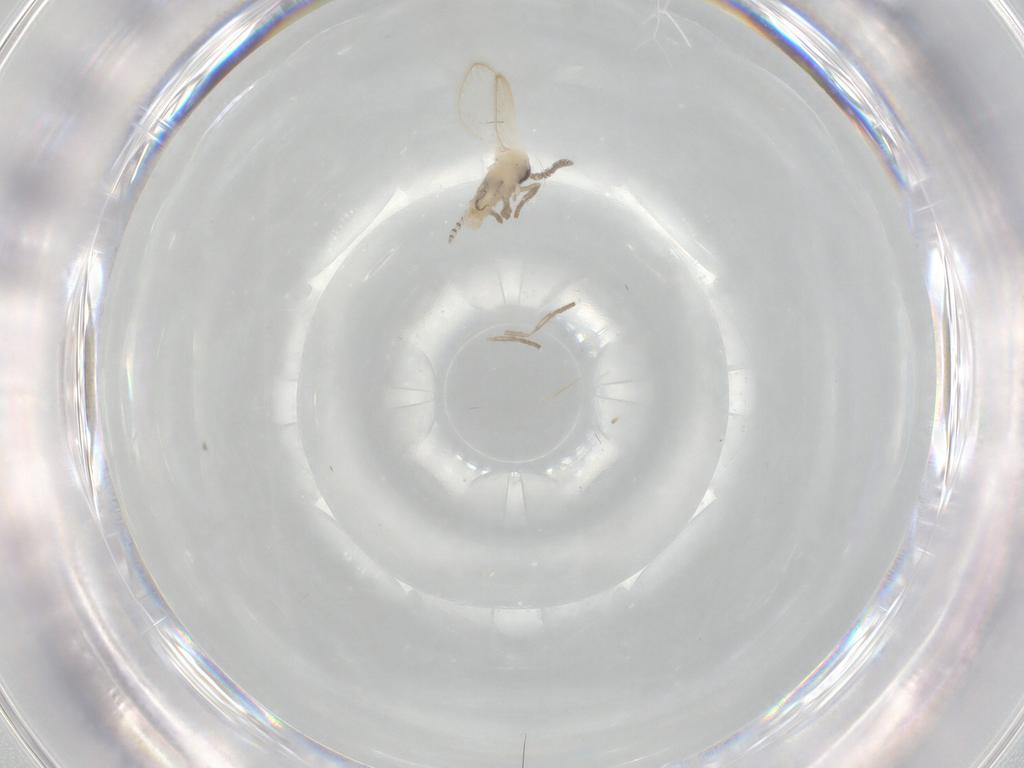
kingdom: Animalia
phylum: Arthropoda
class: Insecta
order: Diptera
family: Psychodidae
